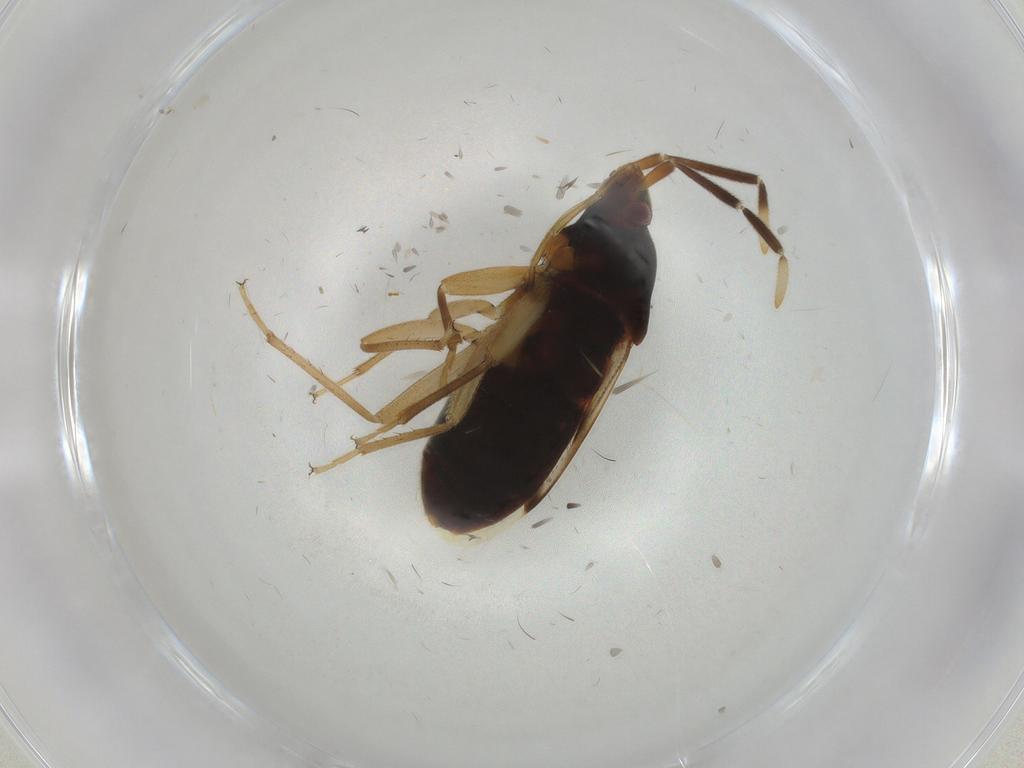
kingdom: Animalia
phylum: Arthropoda
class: Insecta
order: Hemiptera
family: Rhyparochromidae
